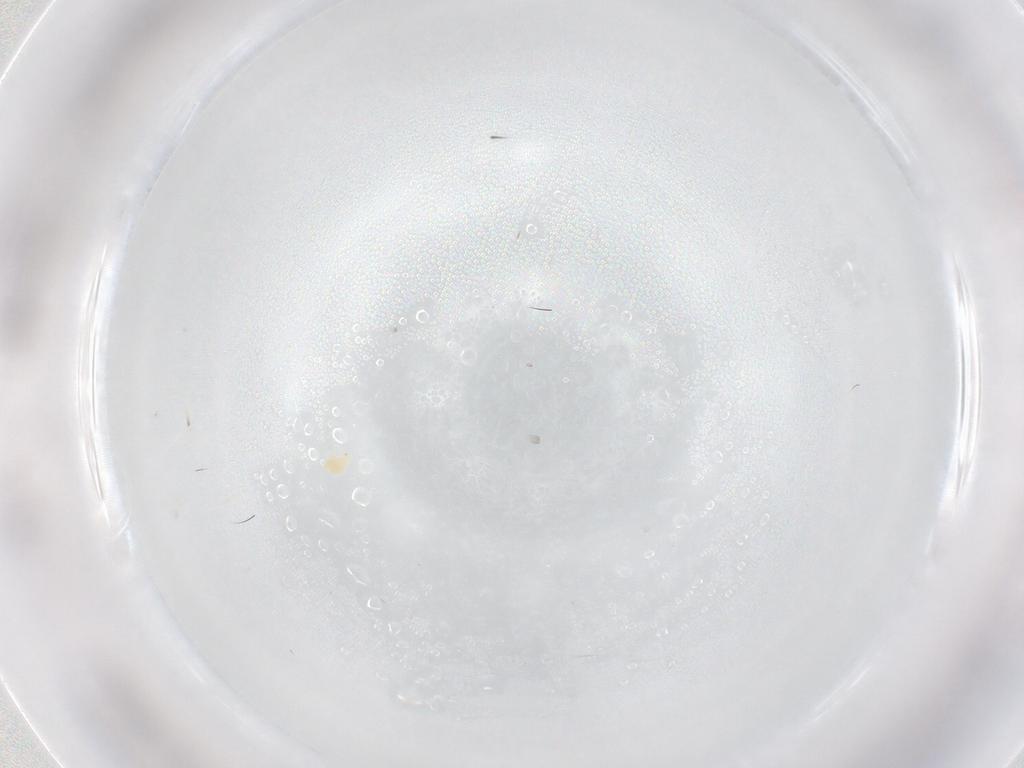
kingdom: Animalia
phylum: Arthropoda
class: Arachnida
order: Trombidiformes
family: Tetranychidae
